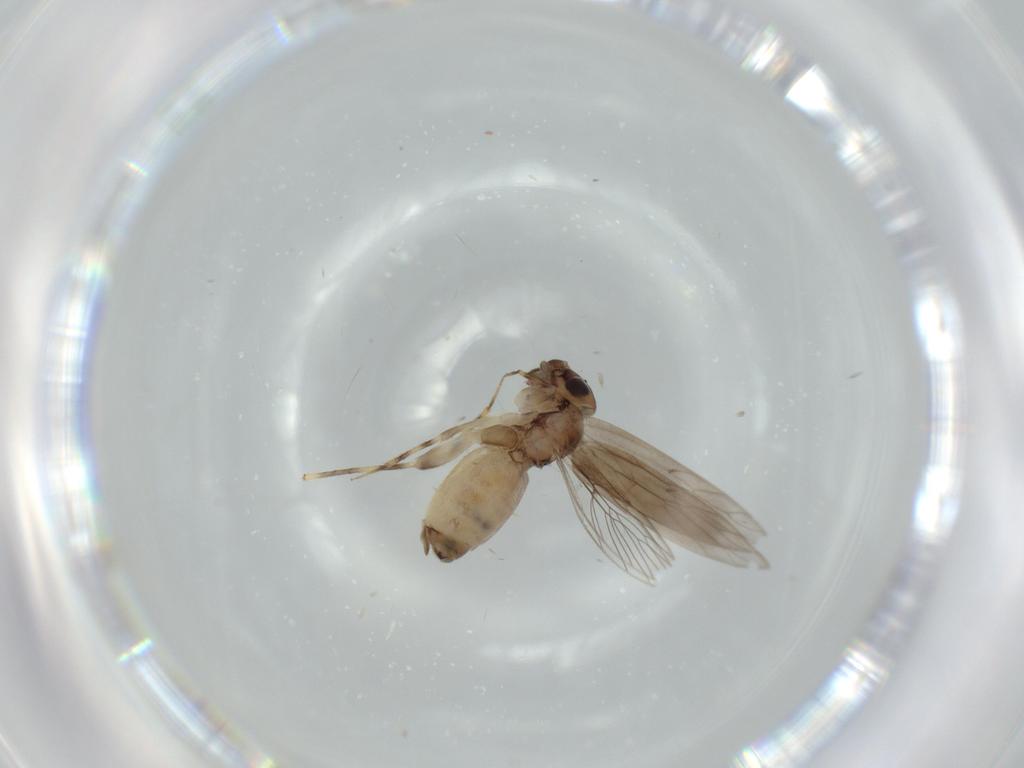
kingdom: Animalia
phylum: Arthropoda
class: Insecta
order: Psocodea
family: Lepidopsocidae
